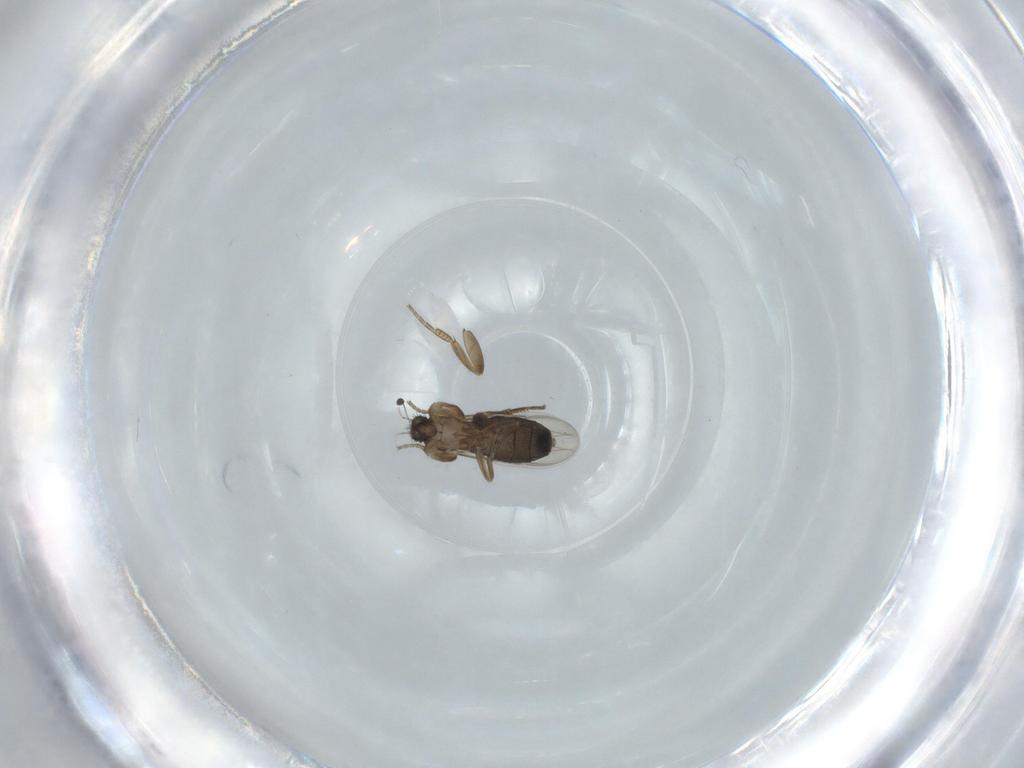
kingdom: Animalia
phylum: Arthropoda
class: Insecta
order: Diptera
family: Phoridae
